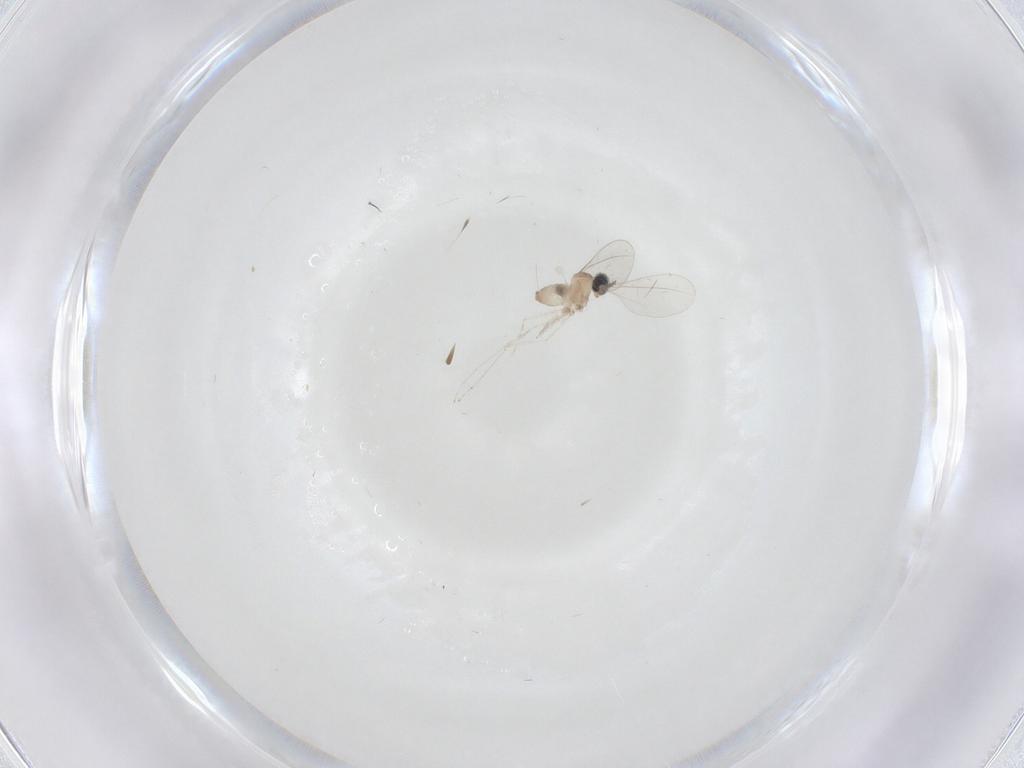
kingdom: Animalia
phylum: Arthropoda
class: Insecta
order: Diptera
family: Cecidomyiidae
